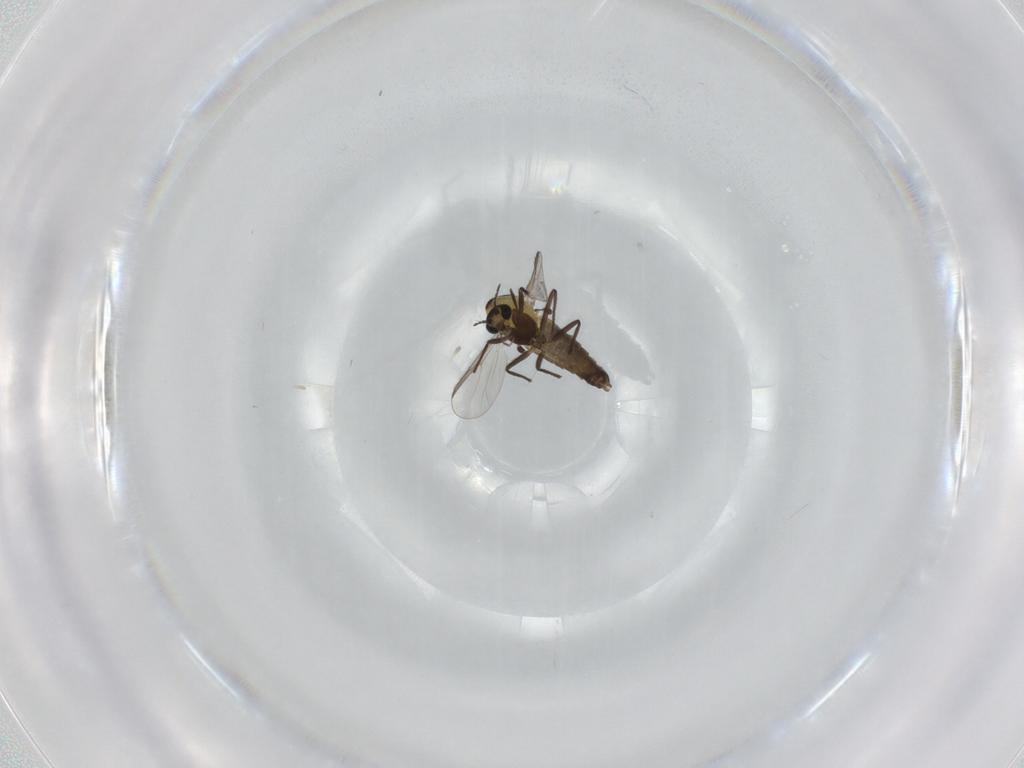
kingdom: Animalia
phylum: Arthropoda
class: Insecta
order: Diptera
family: Chironomidae
